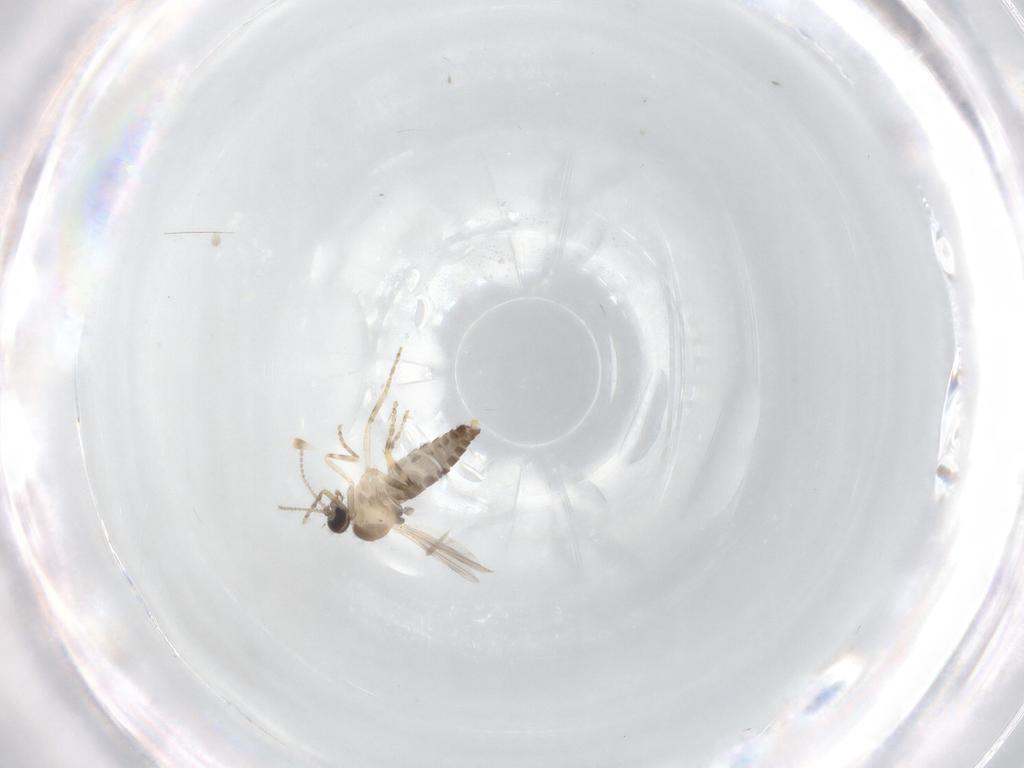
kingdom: Animalia
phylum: Arthropoda
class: Insecta
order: Diptera
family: Ceratopogonidae
